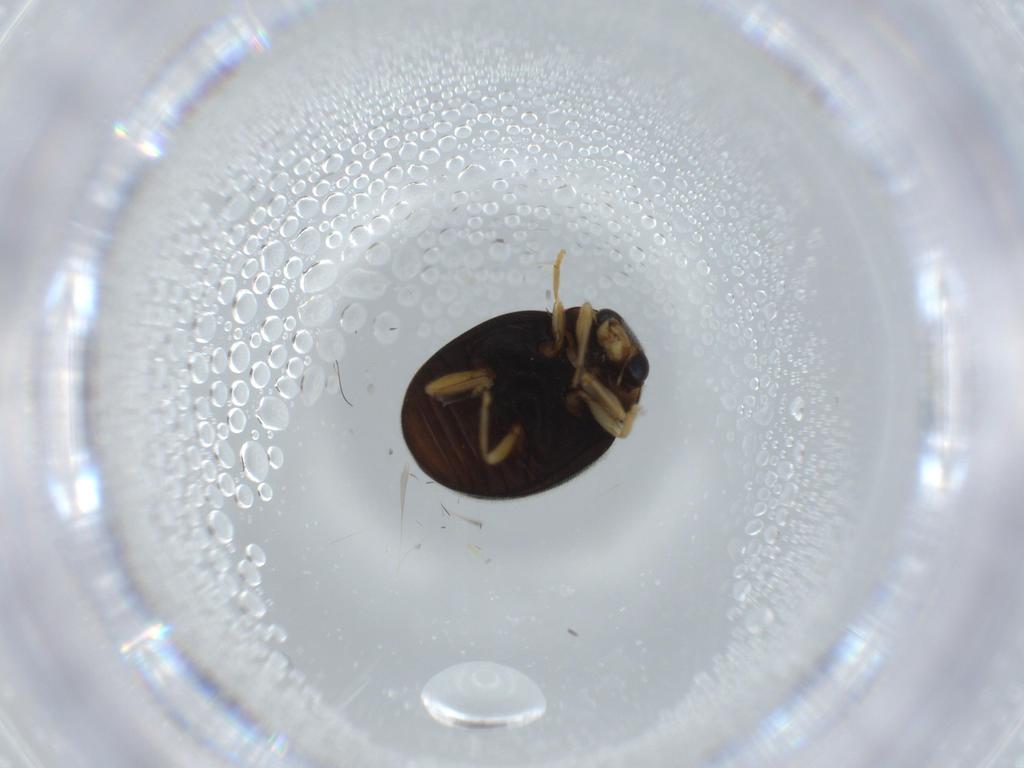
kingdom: Animalia
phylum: Arthropoda
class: Insecta
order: Coleoptera
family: Coccinellidae
